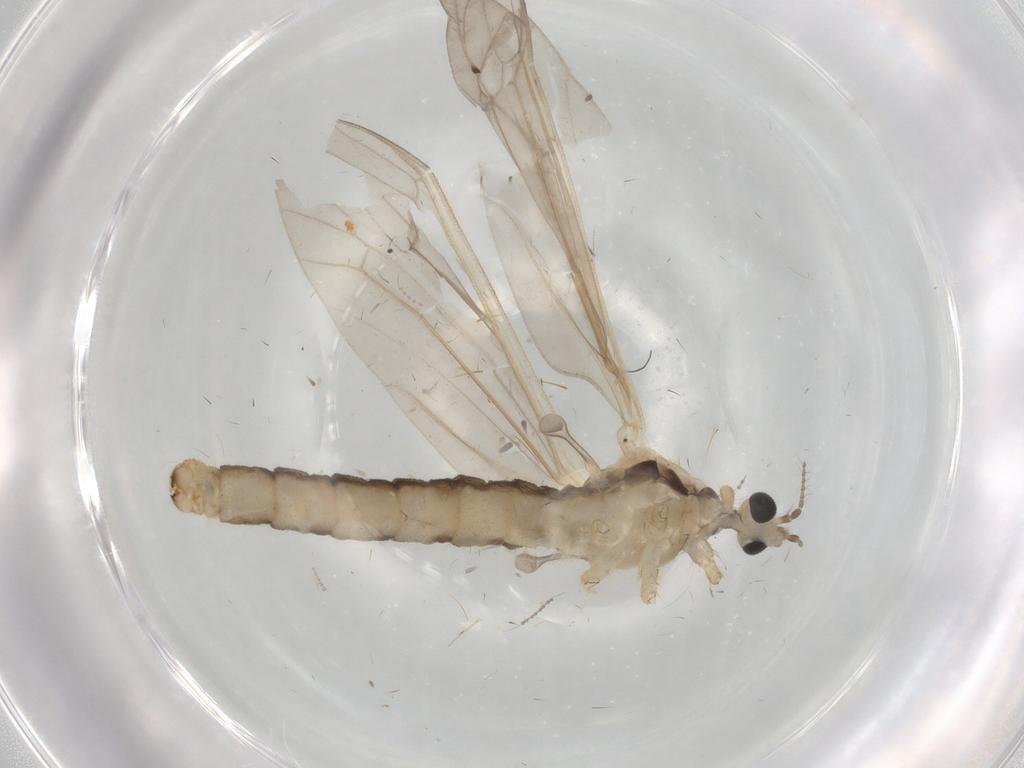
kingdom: Animalia
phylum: Arthropoda
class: Insecta
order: Diptera
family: Limoniidae
